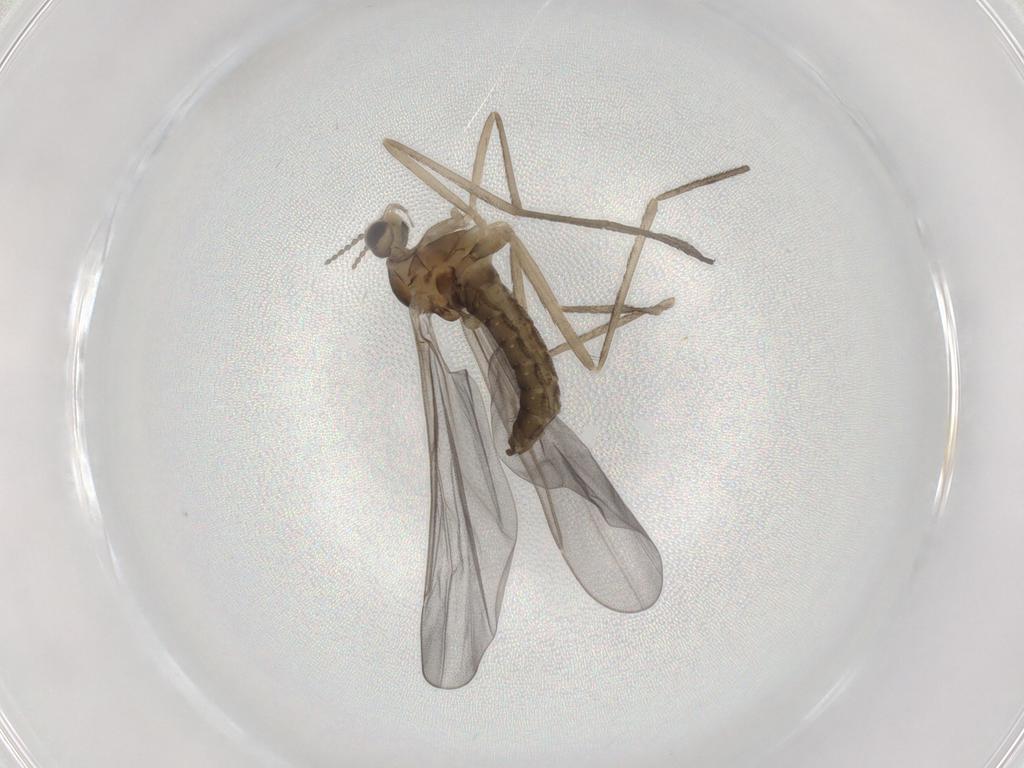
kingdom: Animalia
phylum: Arthropoda
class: Insecta
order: Diptera
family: Cecidomyiidae
